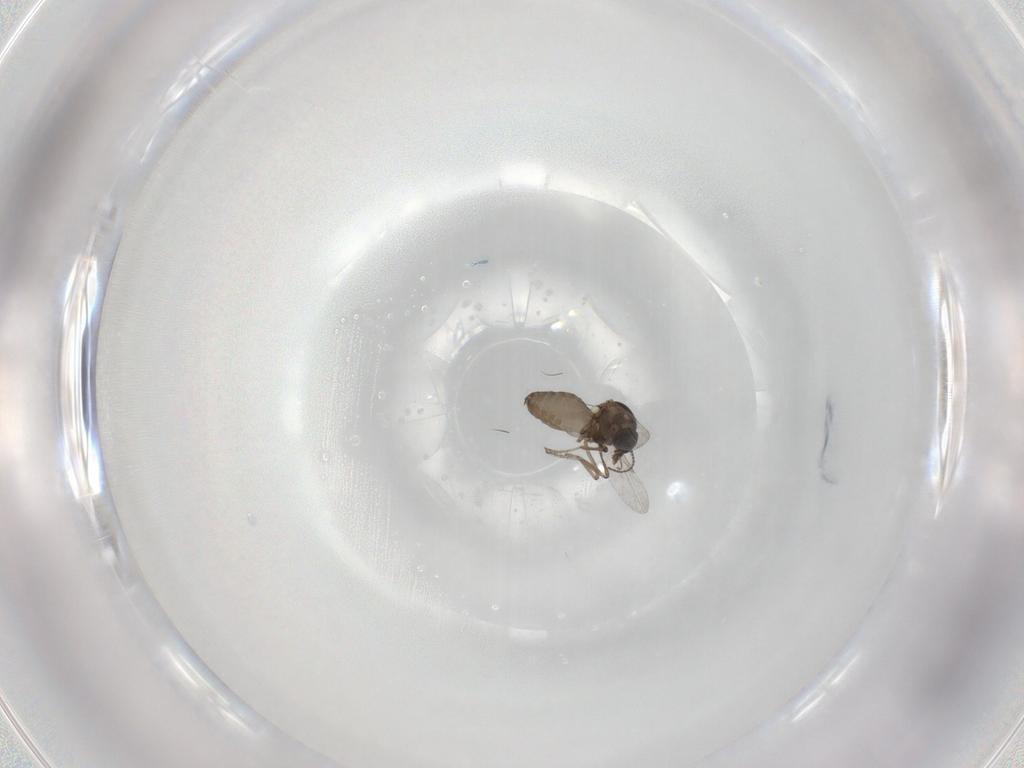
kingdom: Animalia
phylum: Arthropoda
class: Insecta
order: Diptera
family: Ceratopogonidae
